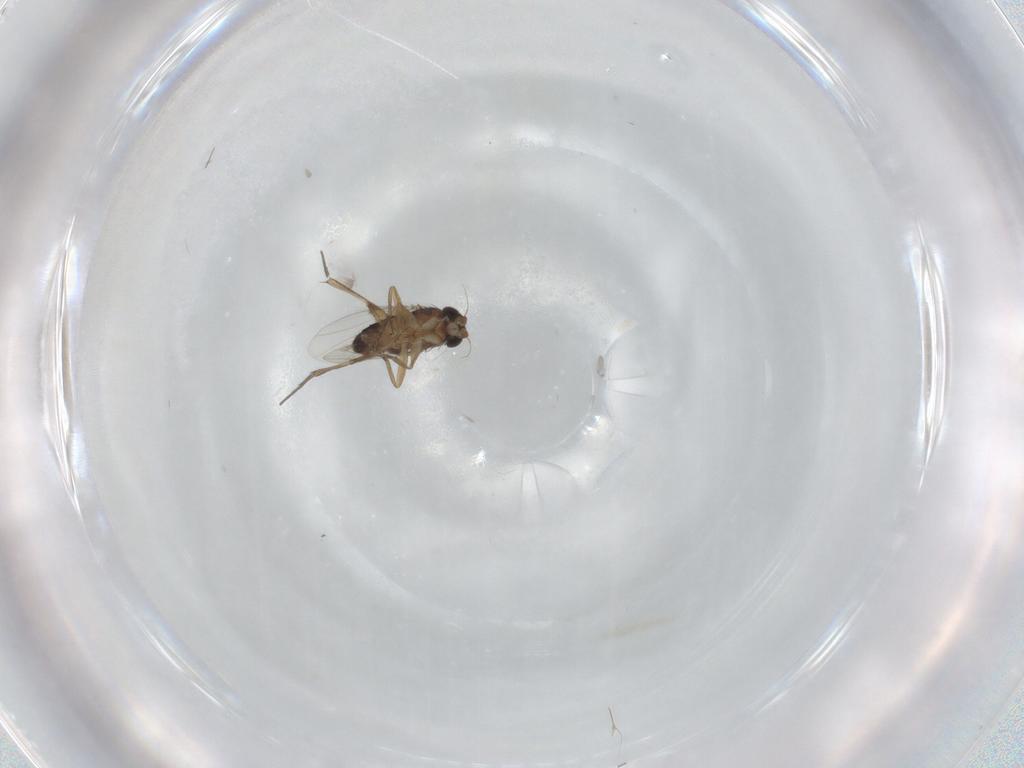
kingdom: Animalia
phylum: Arthropoda
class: Insecta
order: Diptera
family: Phoridae
